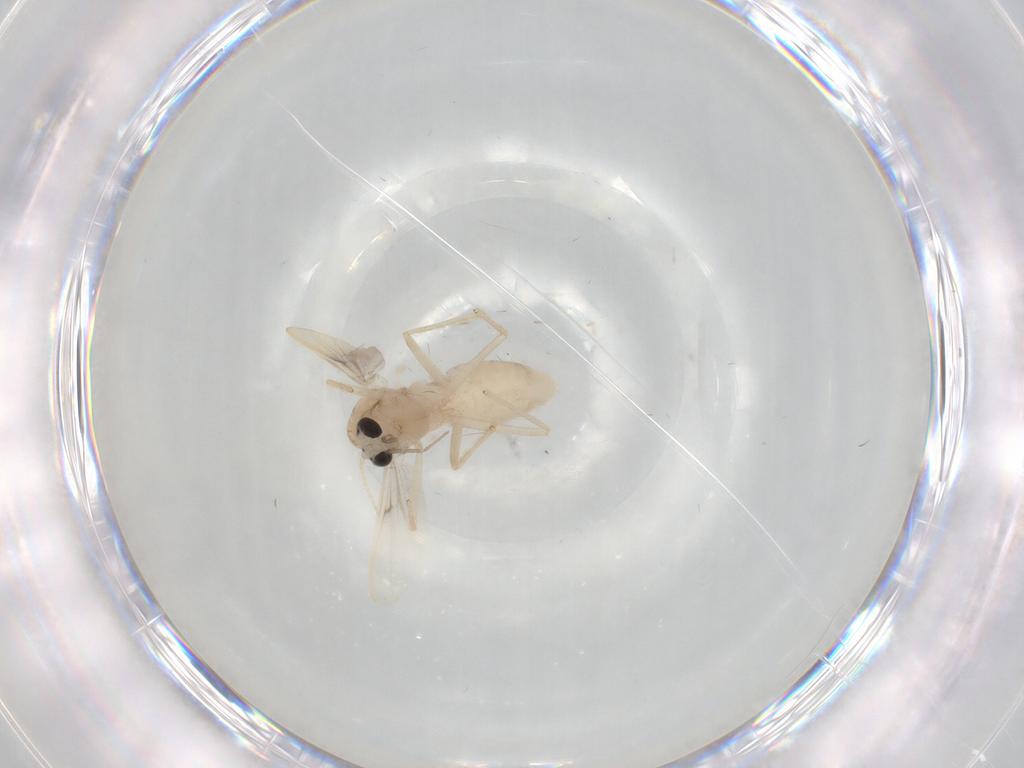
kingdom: Animalia
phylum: Arthropoda
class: Insecta
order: Diptera
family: Chironomidae
